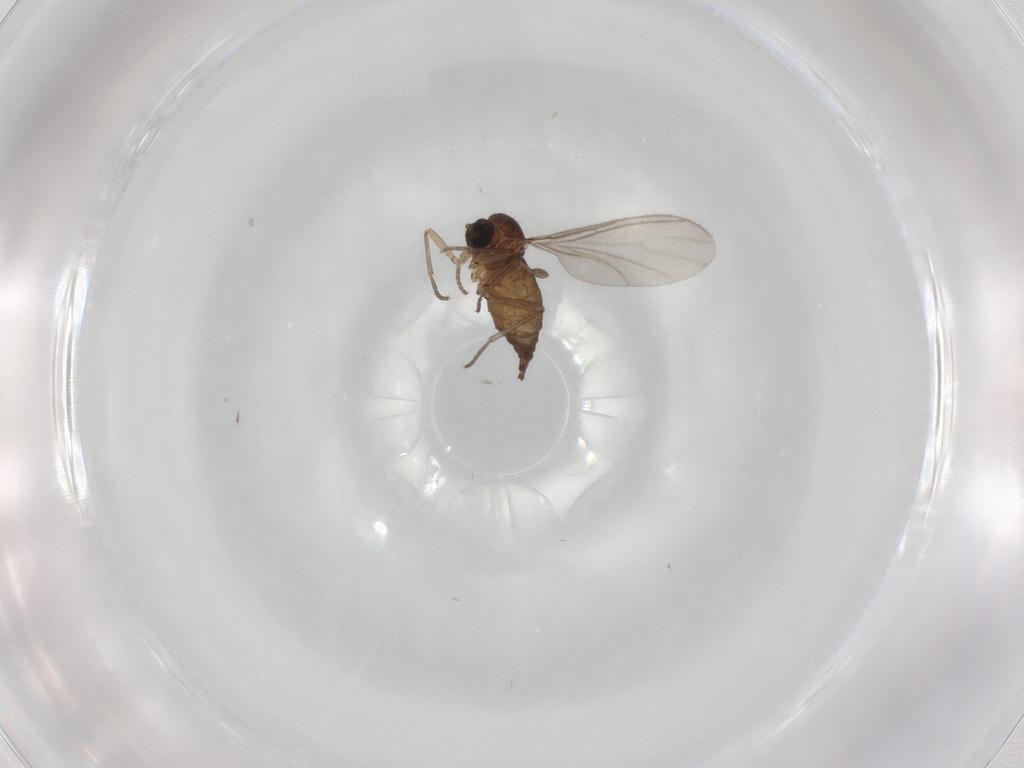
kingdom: Animalia
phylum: Arthropoda
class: Insecta
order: Diptera
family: Sciaridae
